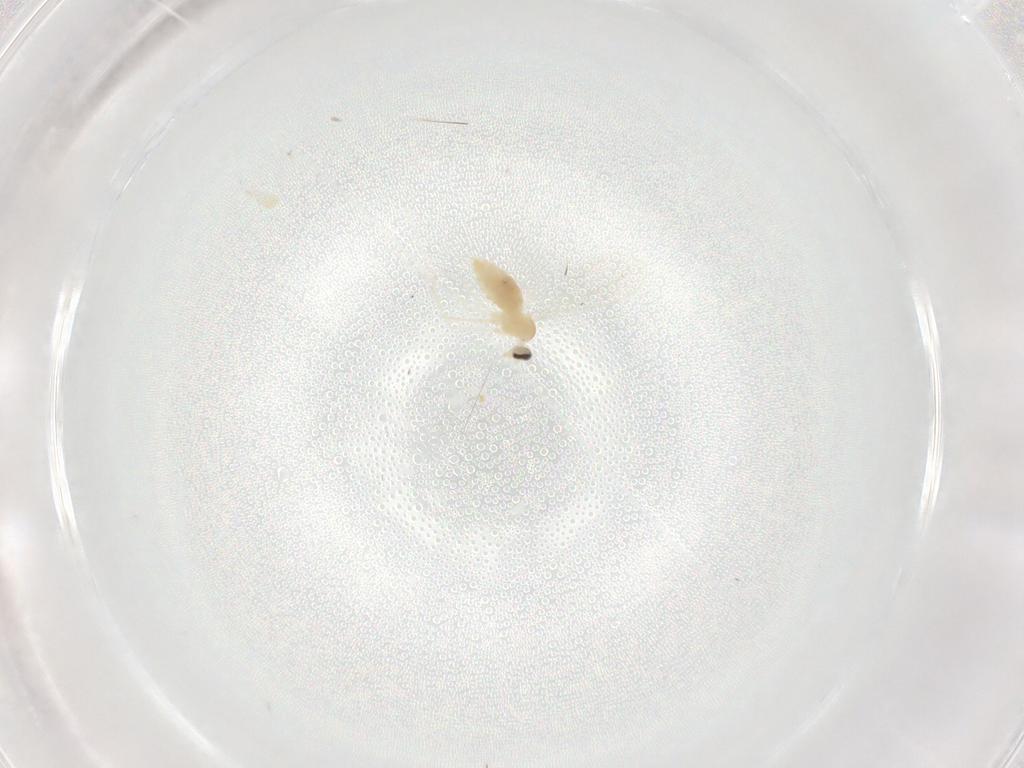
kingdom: Animalia
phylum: Arthropoda
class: Insecta
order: Diptera
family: Cecidomyiidae
